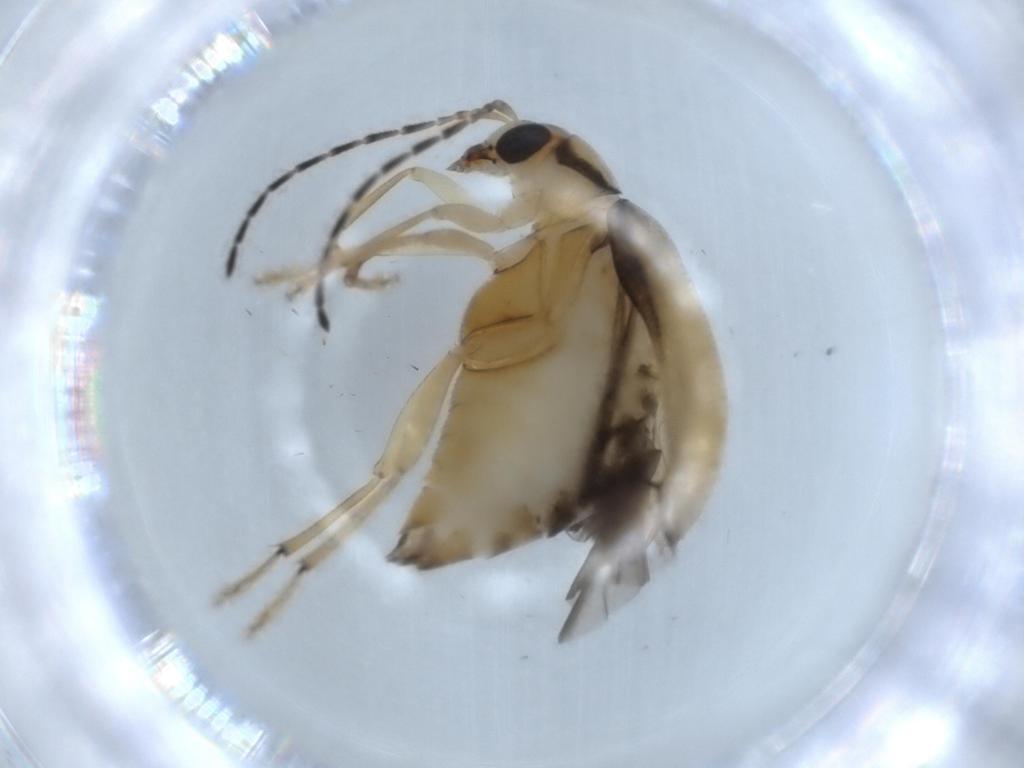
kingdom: Animalia
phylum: Arthropoda
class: Insecta
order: Coleoptera
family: Chrysomelidae
